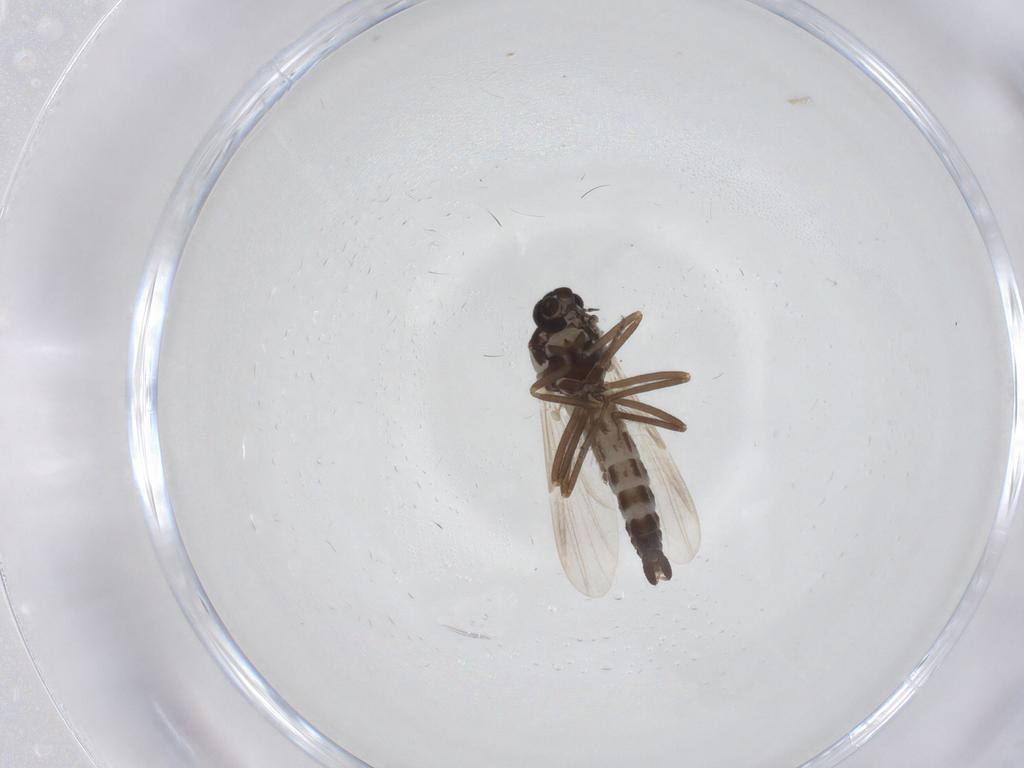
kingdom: Animalia
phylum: Arthropoda
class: Insecta
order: Diptera
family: Ceratopogonidae
